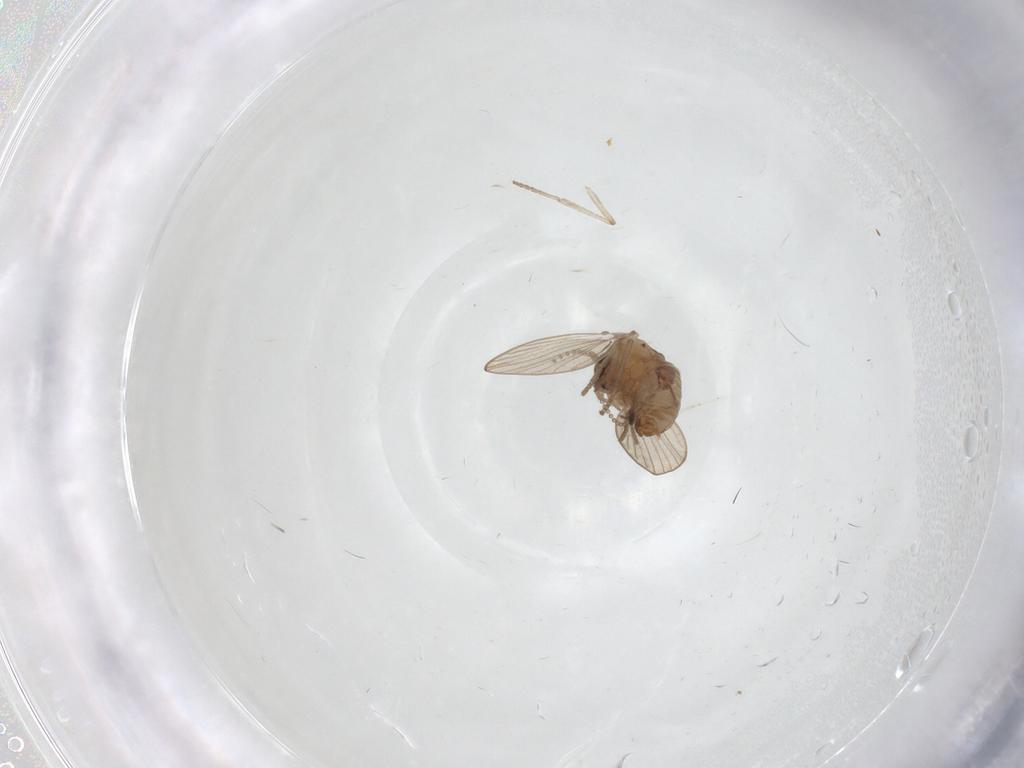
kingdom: Animalia
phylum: Arthropoda
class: Insecta
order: Diptera
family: Psychodidae
